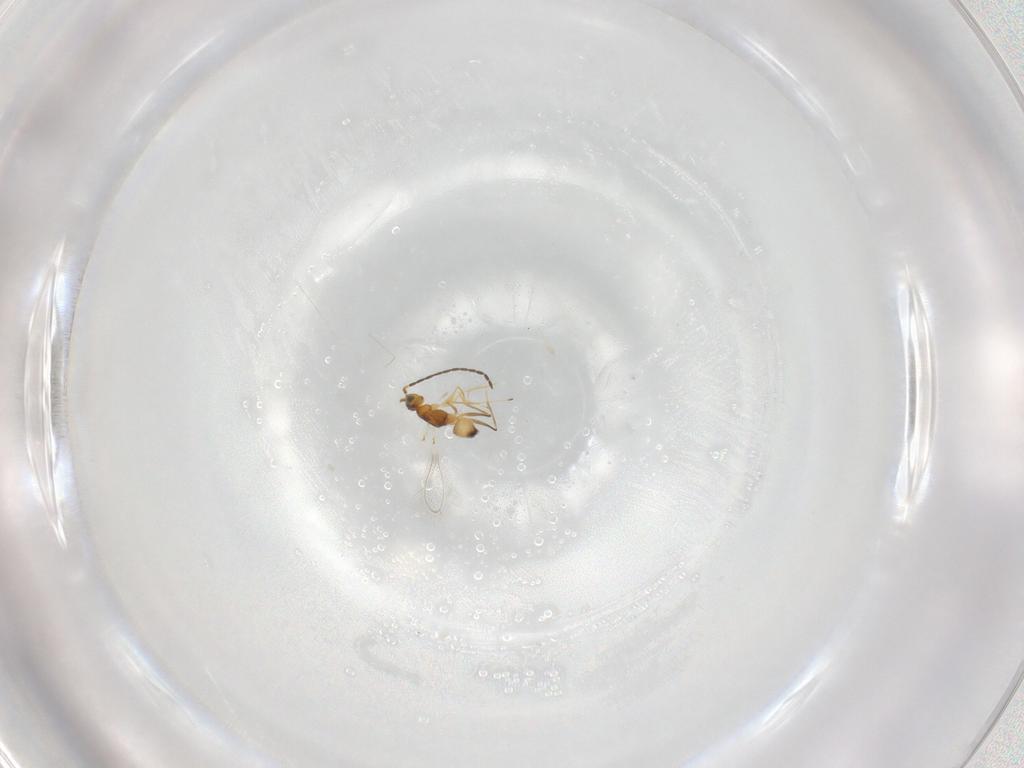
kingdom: Animalia
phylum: Arthropoda
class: Insecta
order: Hymenoptera
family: Mymaridae
